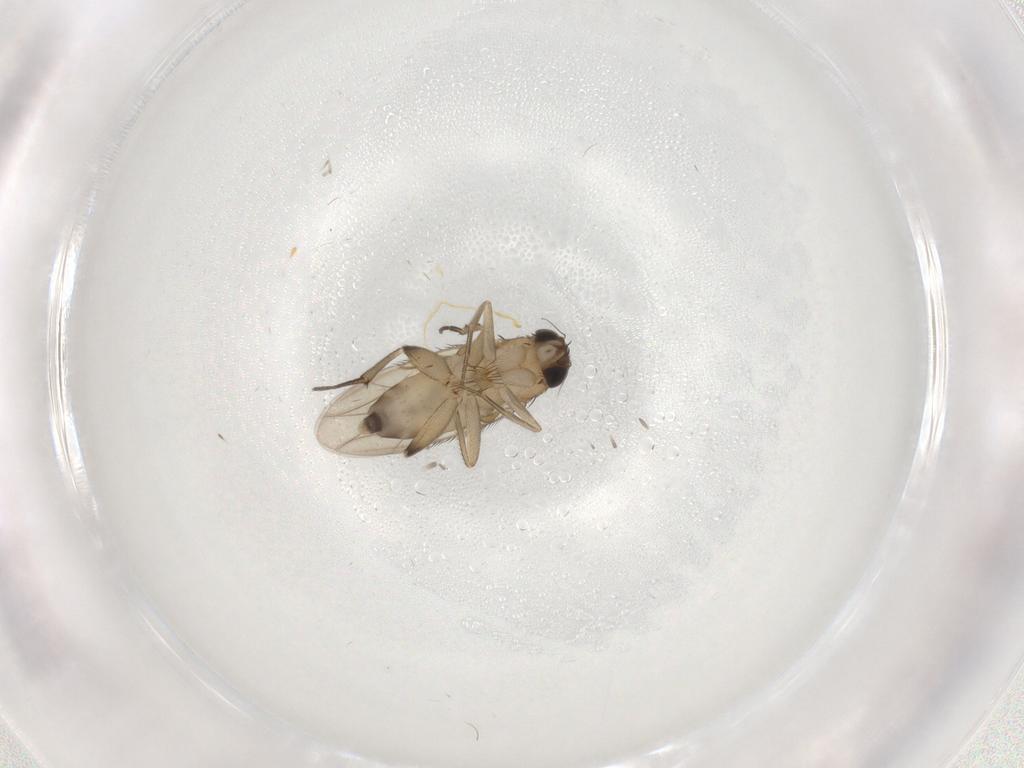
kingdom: Animalia
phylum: Arthropoda
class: Insecta
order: Diptera
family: Phoridae
